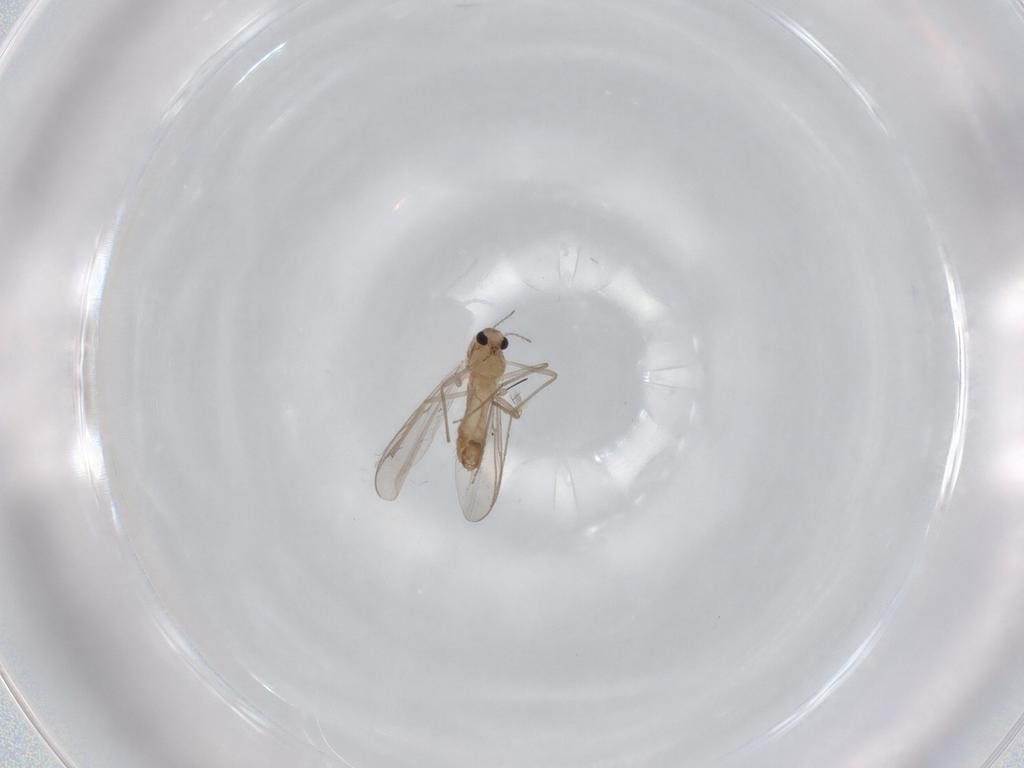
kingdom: Animalia
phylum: Arthropoda
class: Insecta
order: Diptera
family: Chironomidae
